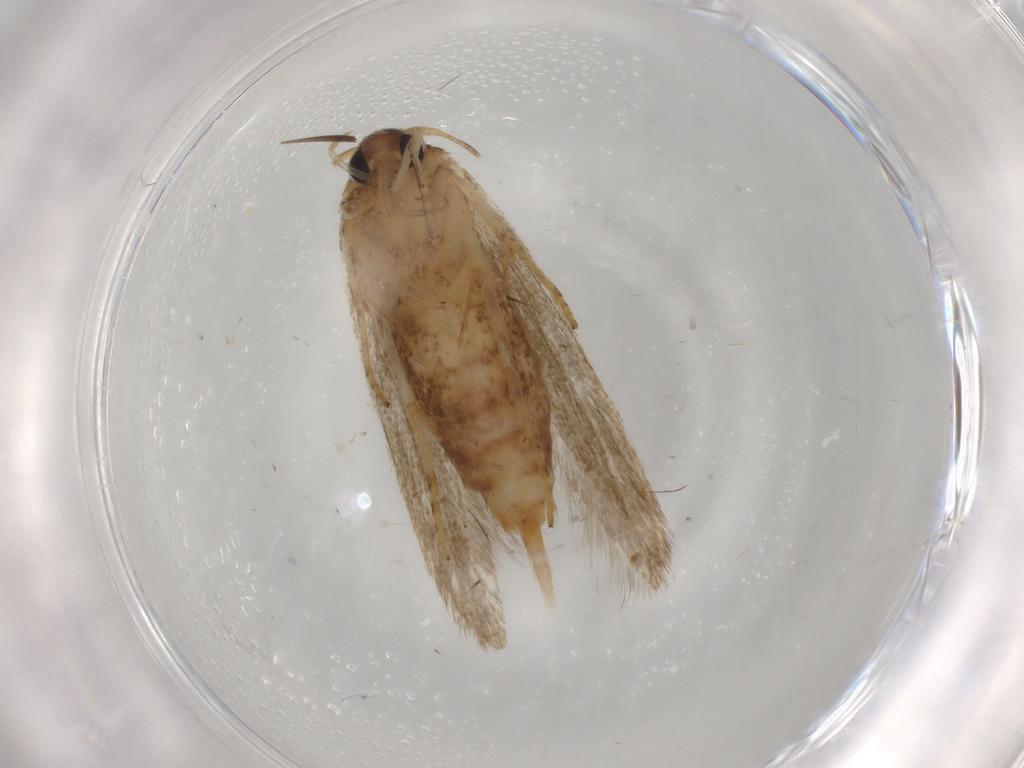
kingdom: Animalia
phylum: Arthropoda
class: Insecta
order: Lepidoptera
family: Blastobasidae
